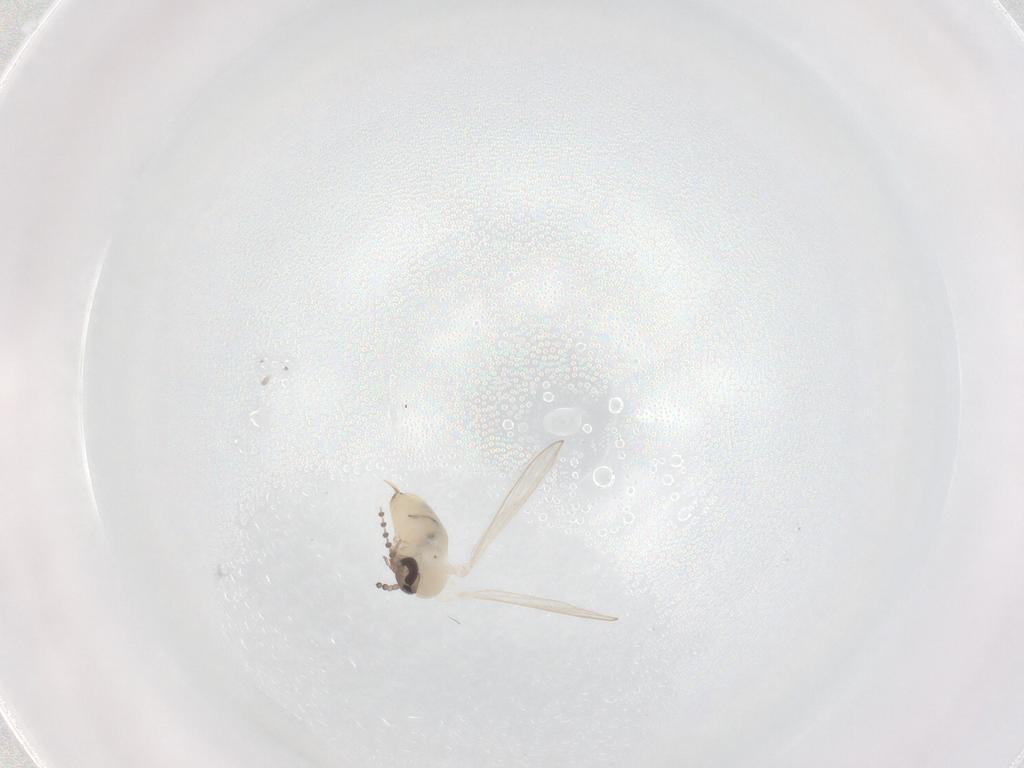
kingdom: Animalia
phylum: Arthropoda
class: Insecta
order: Diptera
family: Psychodidae
